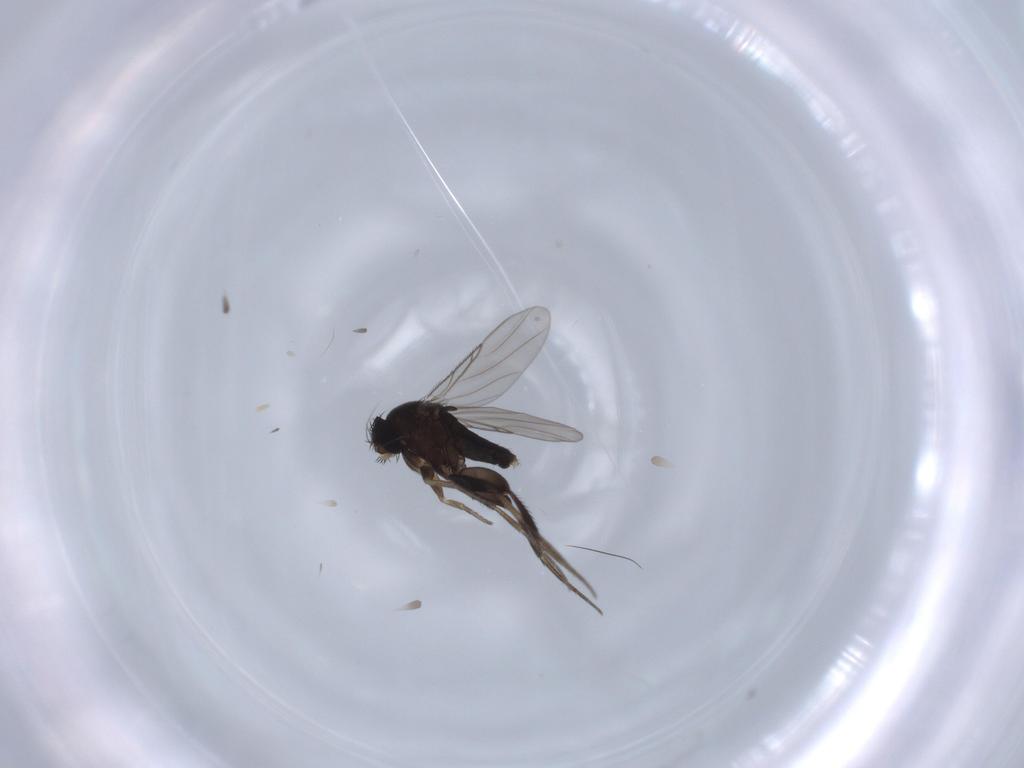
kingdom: Animalia
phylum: Arthropoda
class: Insecta
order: Diptera
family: Phoridae
